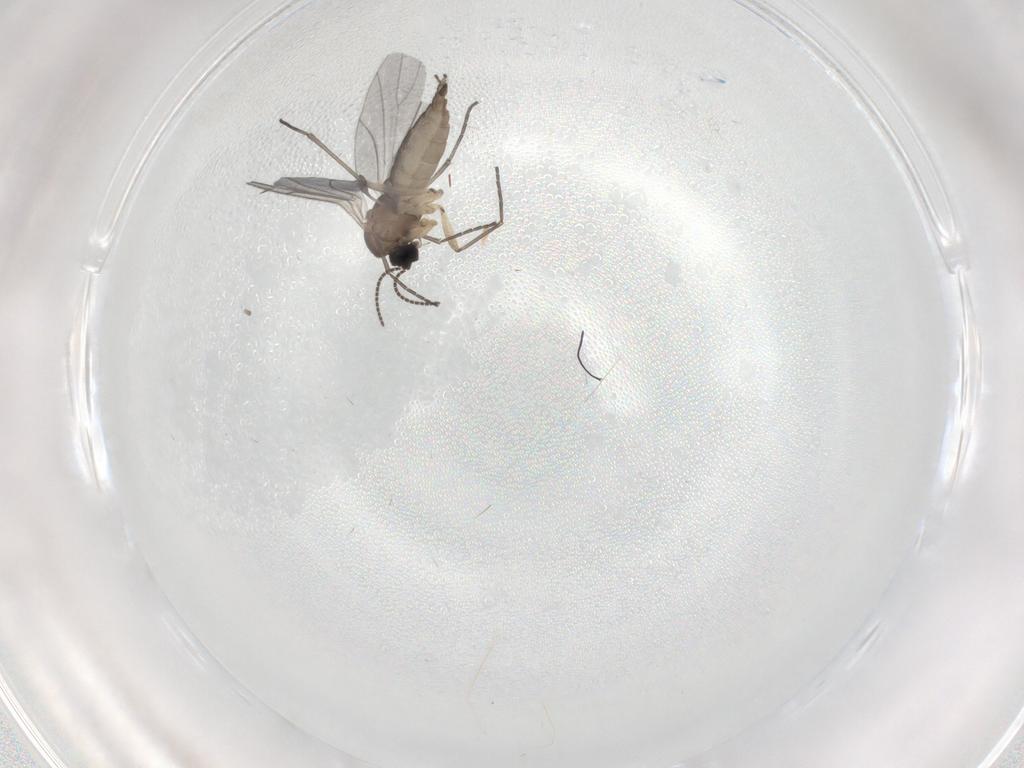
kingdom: Animalia
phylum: Arthropoda
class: Insecta
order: Diptera
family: Sciaridae
